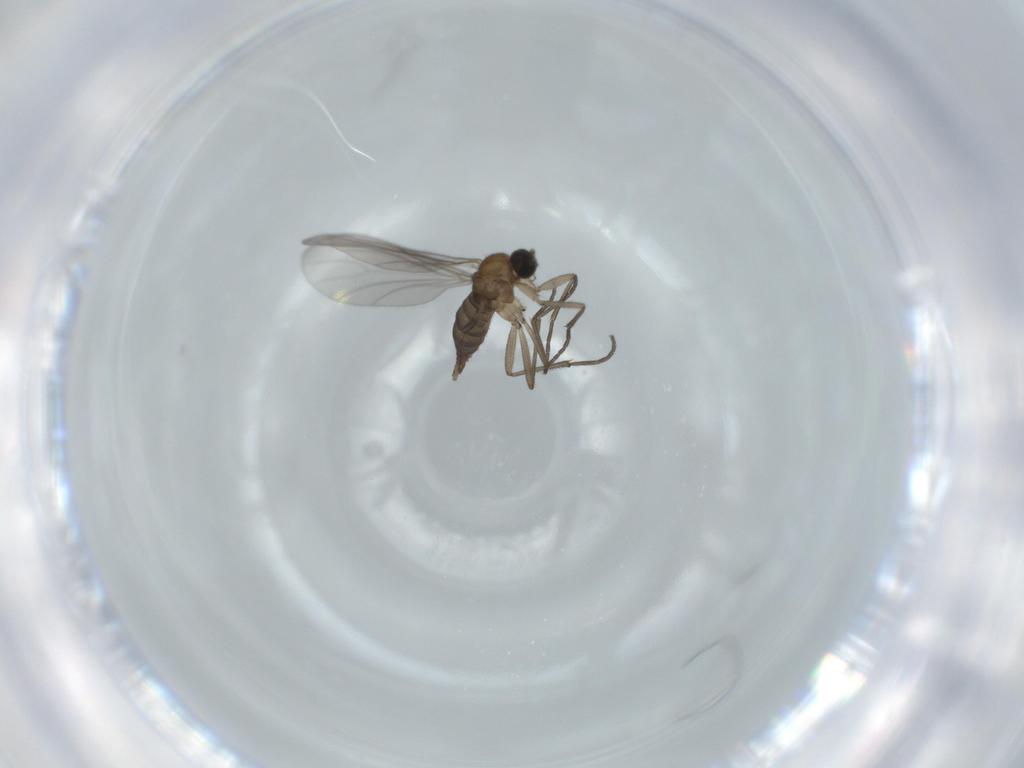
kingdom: Animalia
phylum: Arthropoda
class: Insecta
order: Diptera
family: Sciaridae
